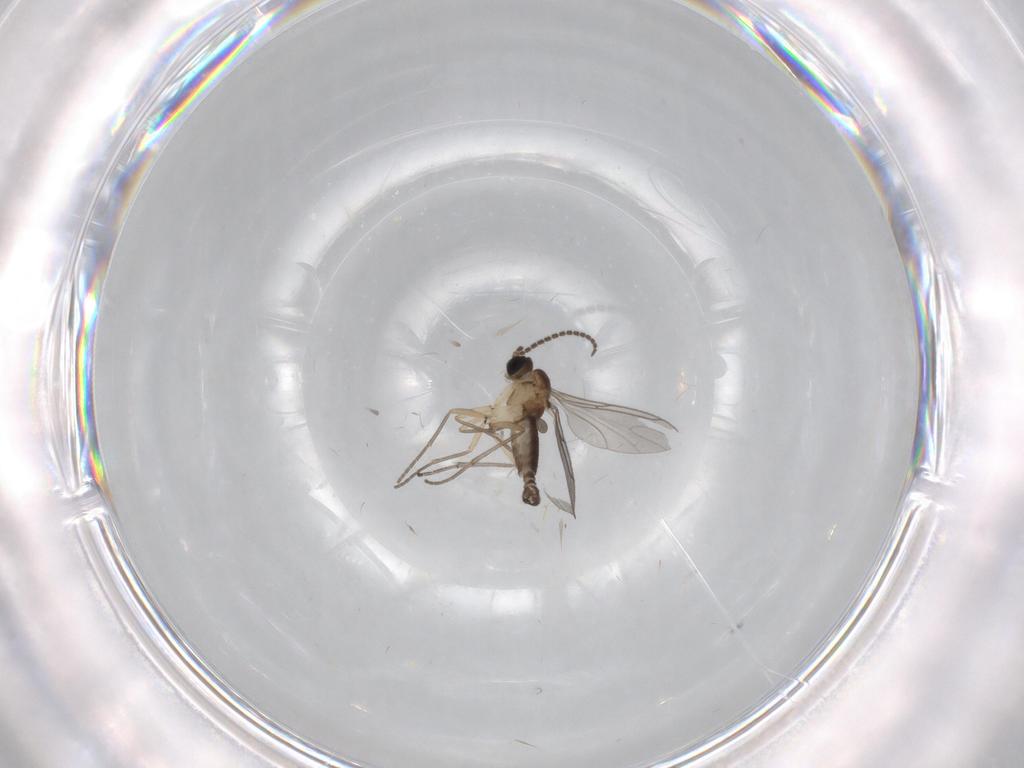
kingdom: Animalia
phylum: Arthropoda
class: Insecta
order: Diptera
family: Sciaridae
